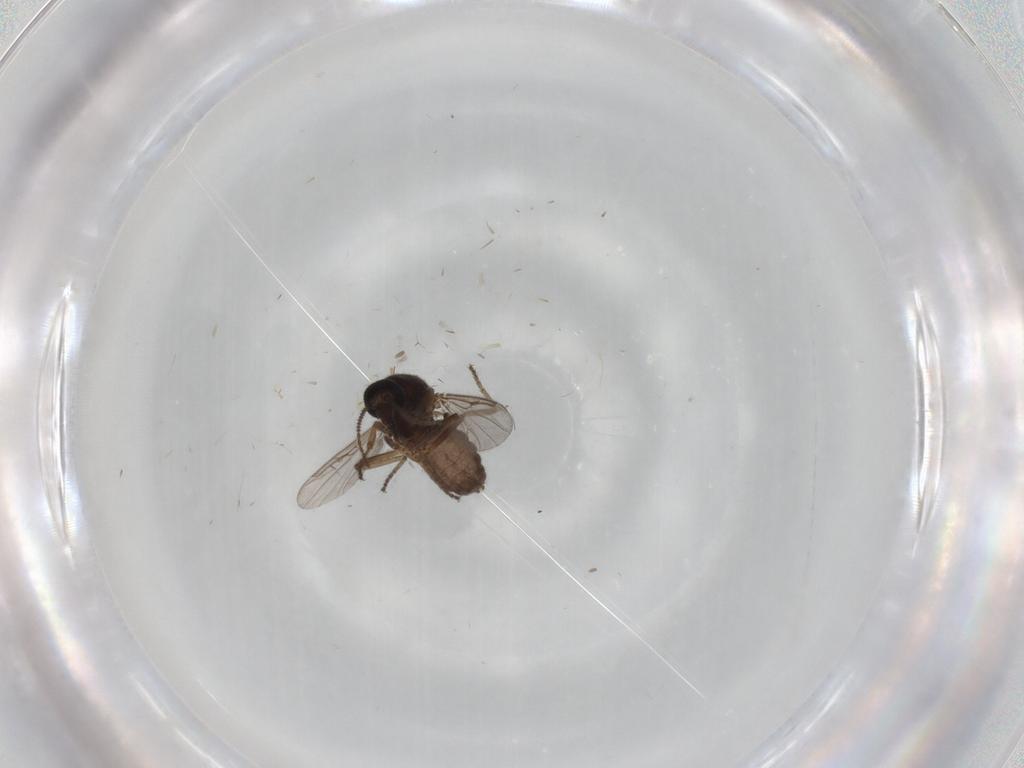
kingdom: Animalia
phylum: Arthropoda
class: Insecta
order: Diptera
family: Ceratopogonidae
